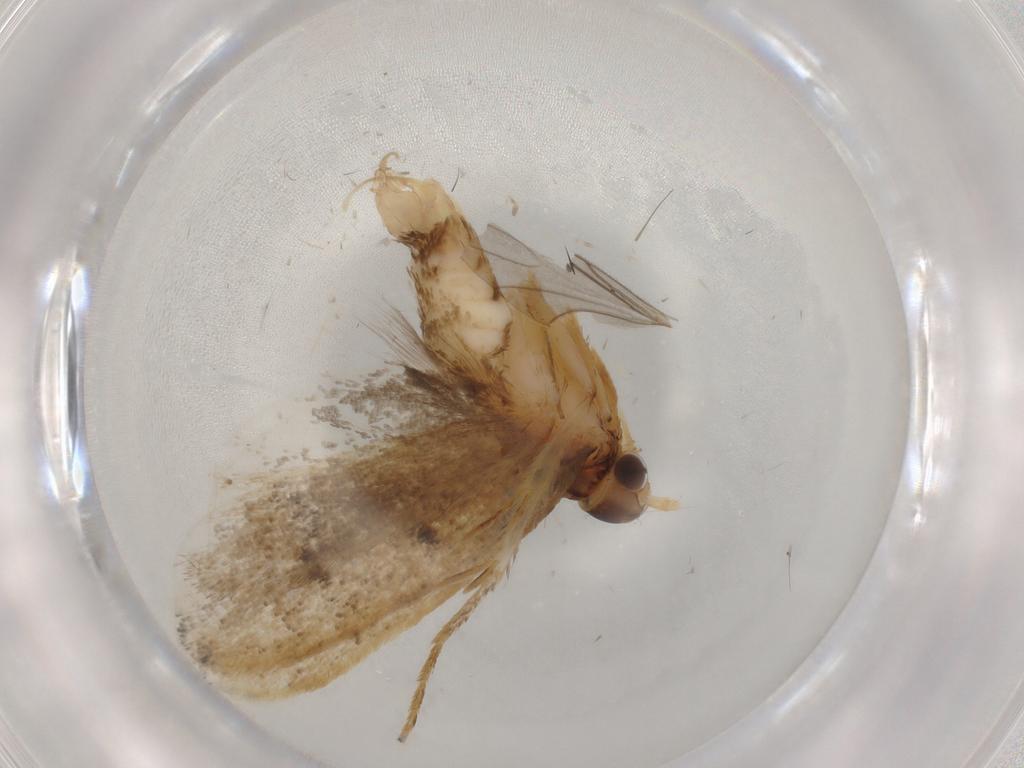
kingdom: Animalia
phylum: Arthropoda
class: Insecta
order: Lepidoptera
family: Lecithoceridae
